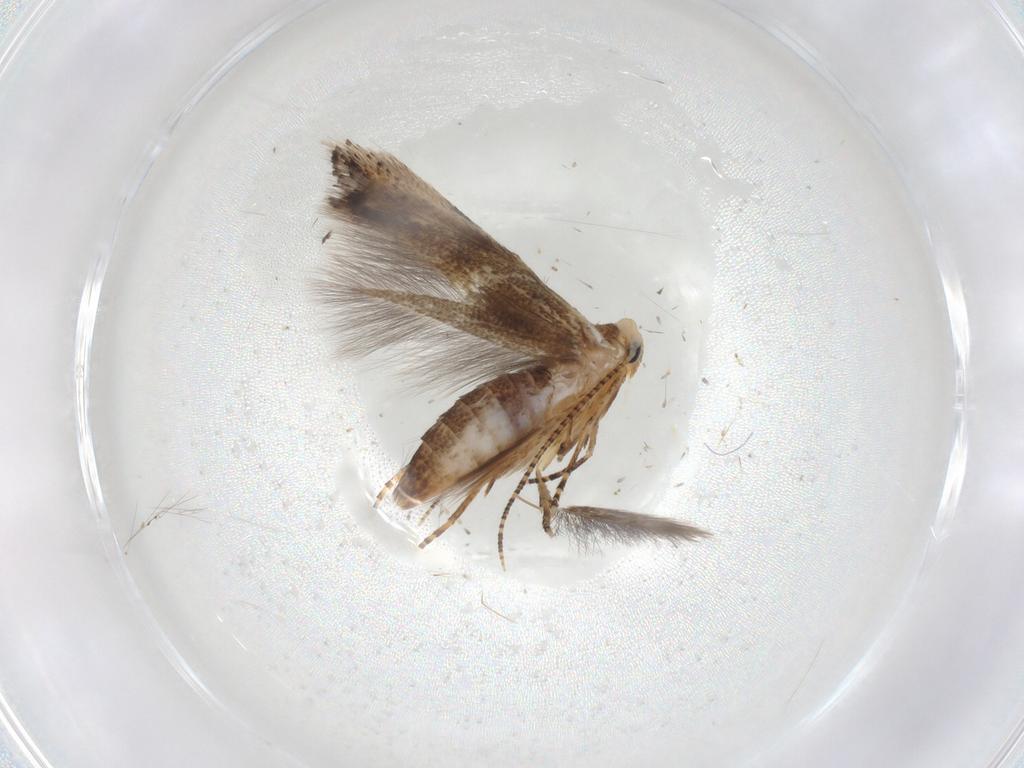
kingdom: Animalia
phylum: Arthropoda
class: Insecta
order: Lepidoptera
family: Bucculatricidae
